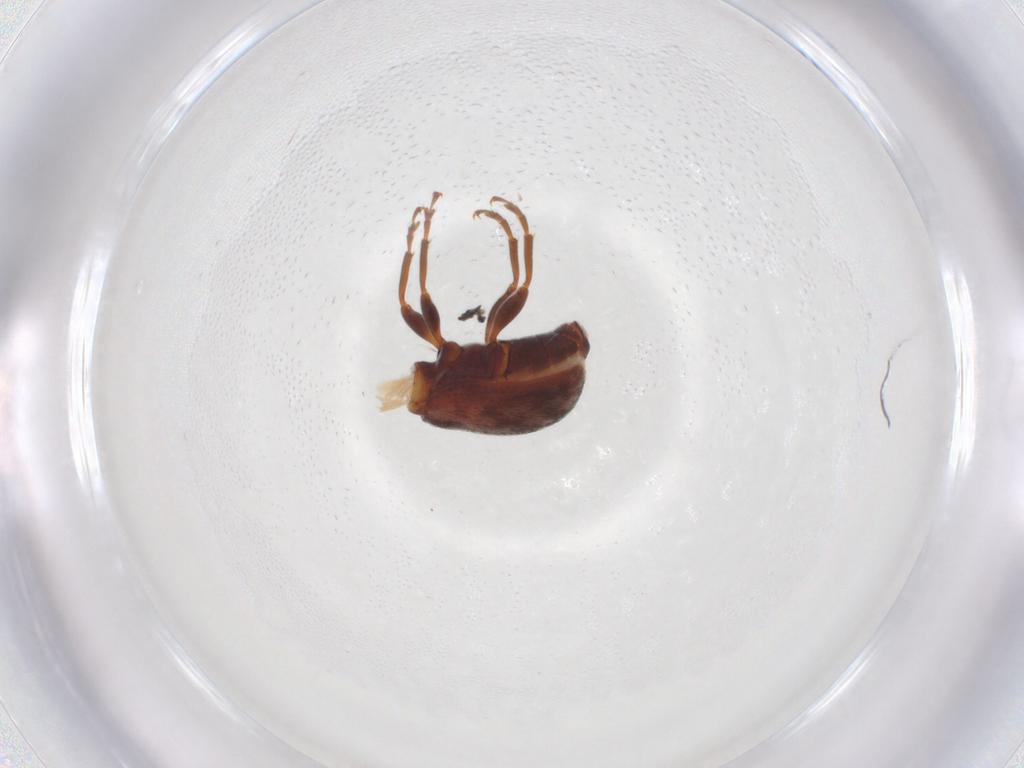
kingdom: Animalia
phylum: Arthropoda
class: Insecta
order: Coleoptera
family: Anthribidae
